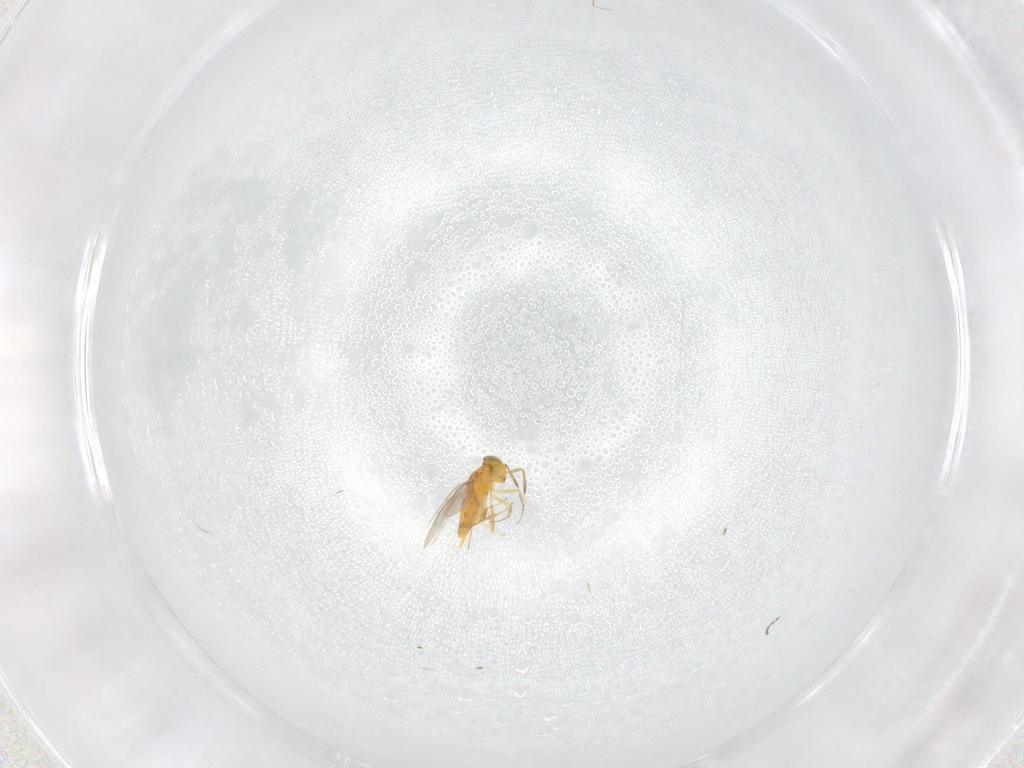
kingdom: Animalia
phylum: Arthropoda
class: Insecta
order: Hymenoptera
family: Aphelinidae
